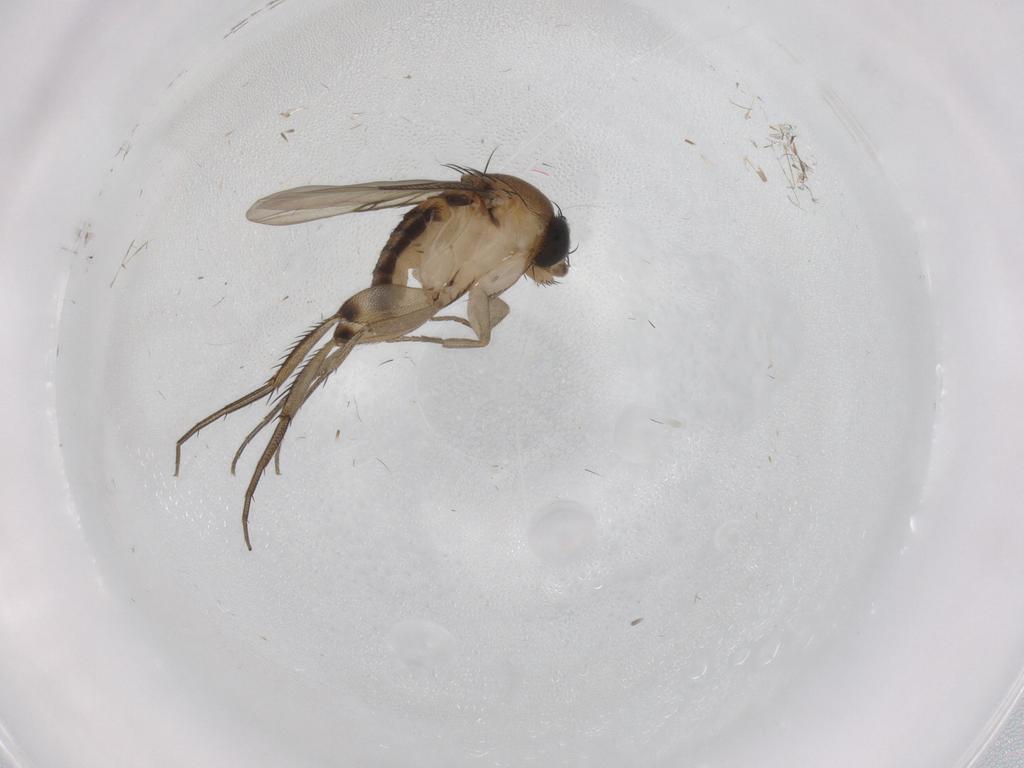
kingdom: Animalia
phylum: Arthropoda
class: Insecta
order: Diptera
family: Phoridae
